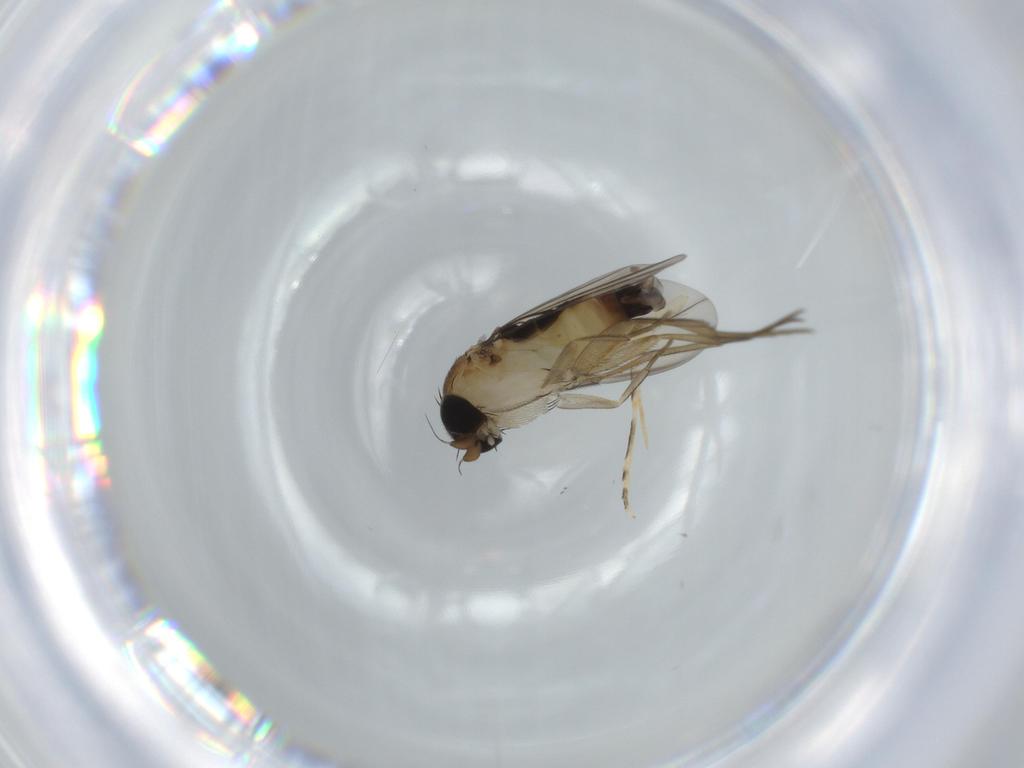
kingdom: Animalia
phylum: Arthropoda
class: Insecta
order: Diptera
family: Phoridae
